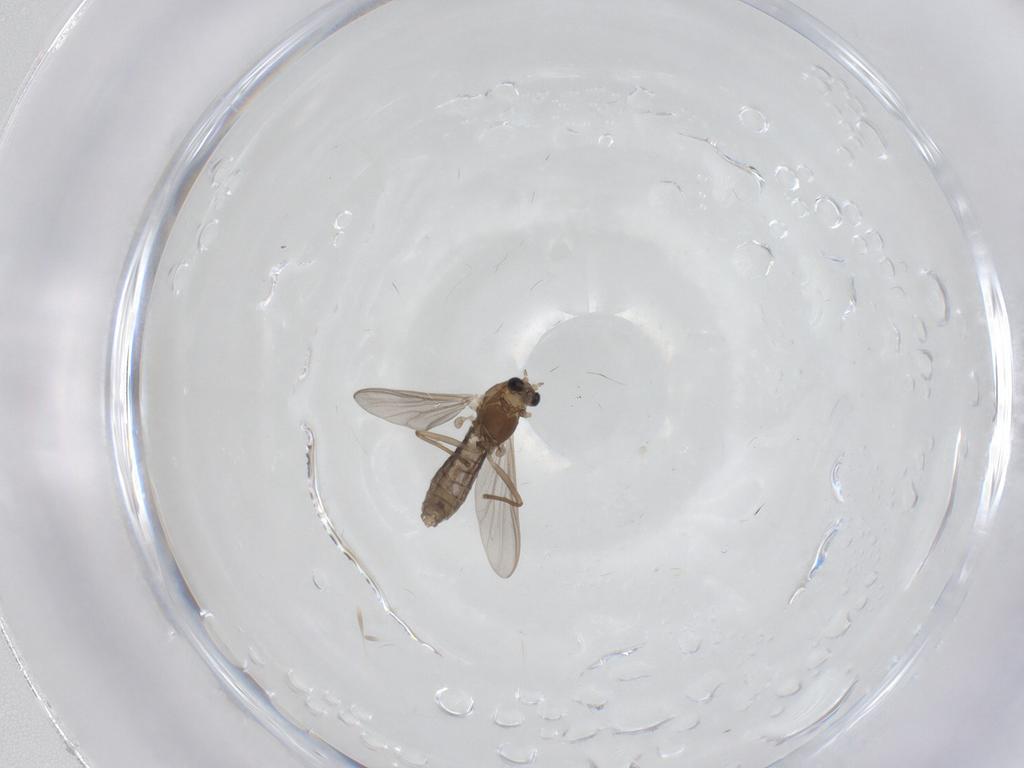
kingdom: Animalia
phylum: Arthropoda
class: Insecta
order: Diptera
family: Chironomidae
